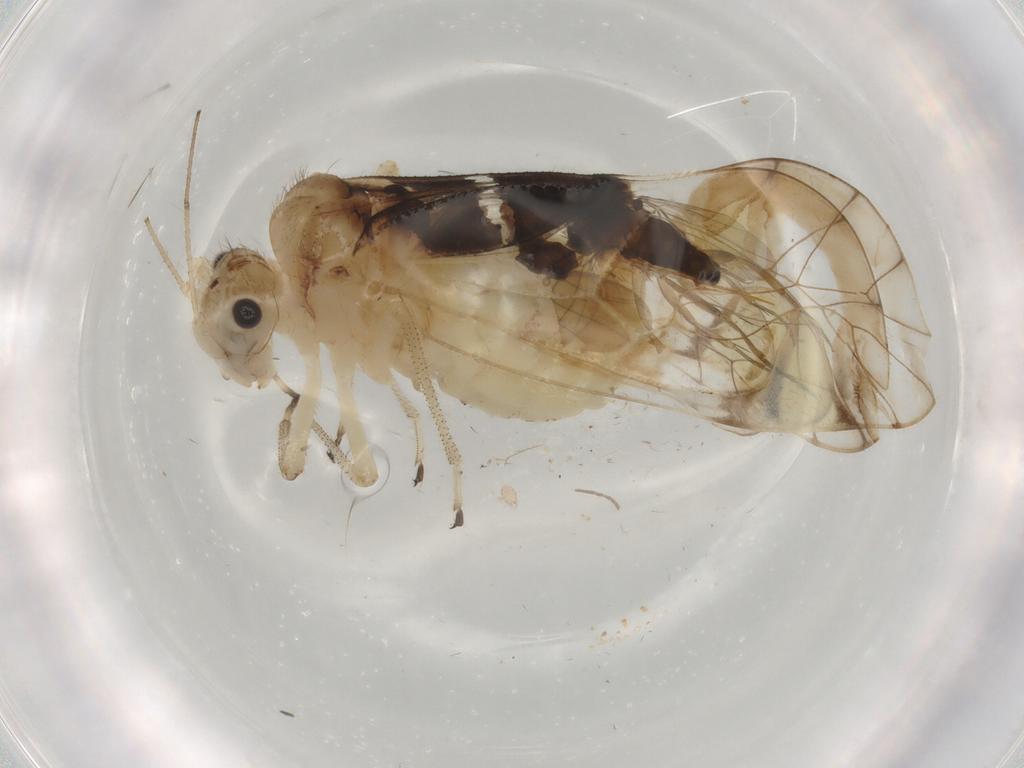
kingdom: Animalia
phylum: Arthropoda
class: Insecta
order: Psocodea
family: Amphipsocidae
